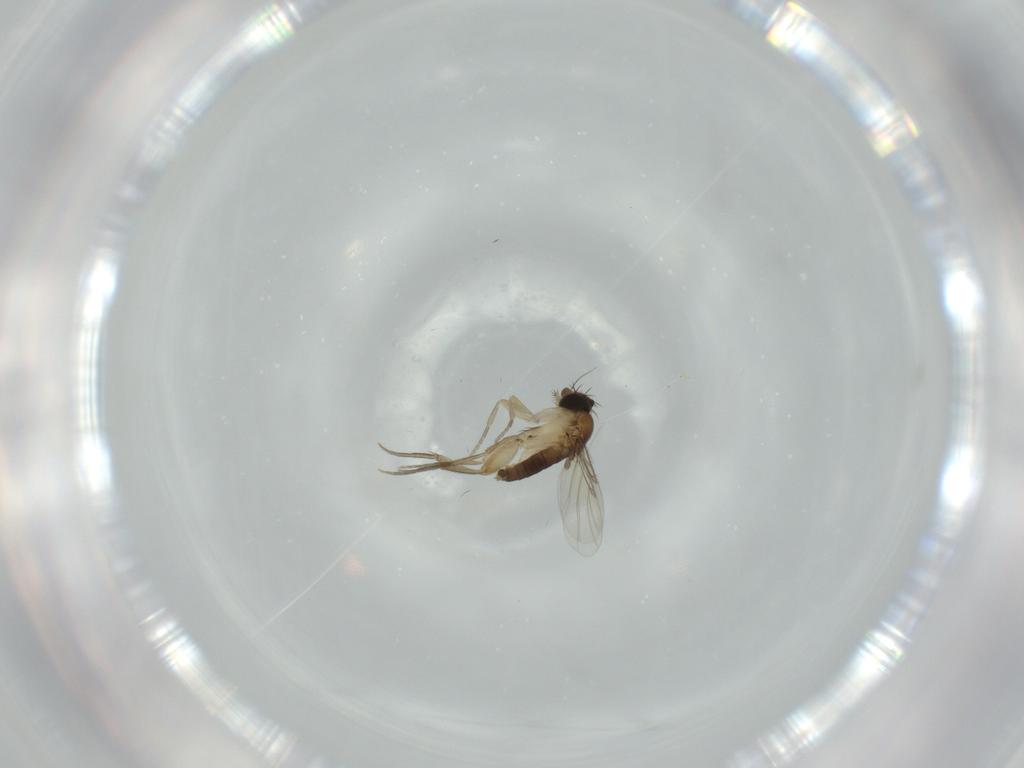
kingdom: Animalia
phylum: Arthropoda
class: Insecta
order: Diptera
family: Phoridae
